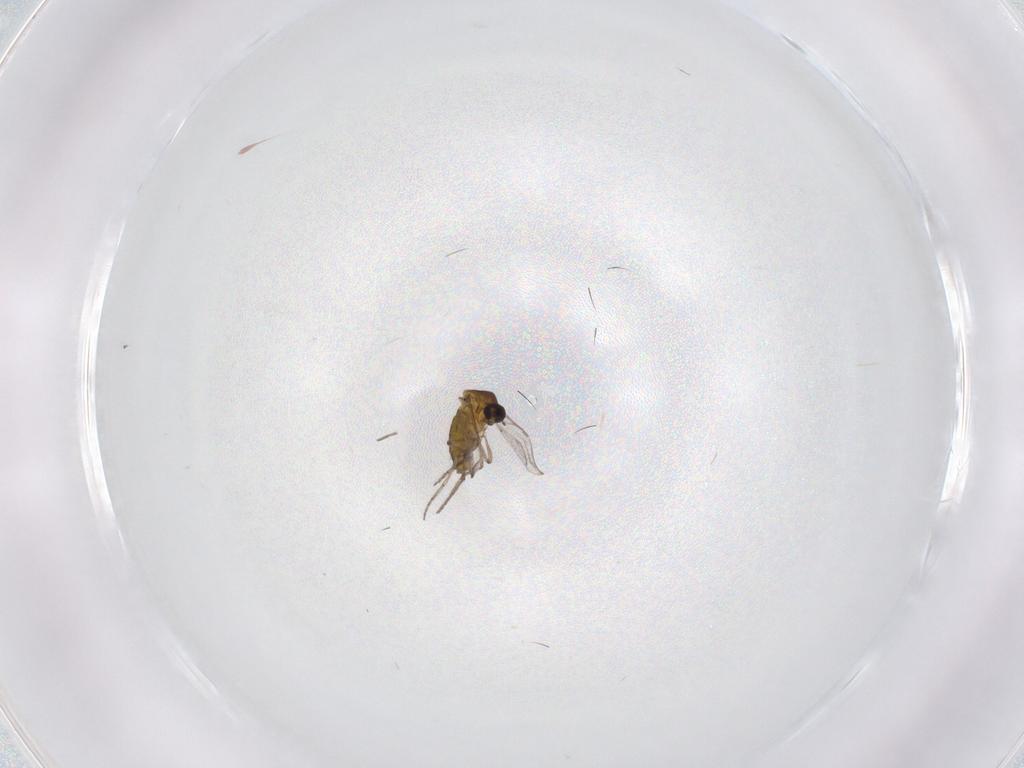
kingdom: Animalia
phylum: Arthropoda
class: Insecta
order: Diptera
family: Ceratopogonidae
